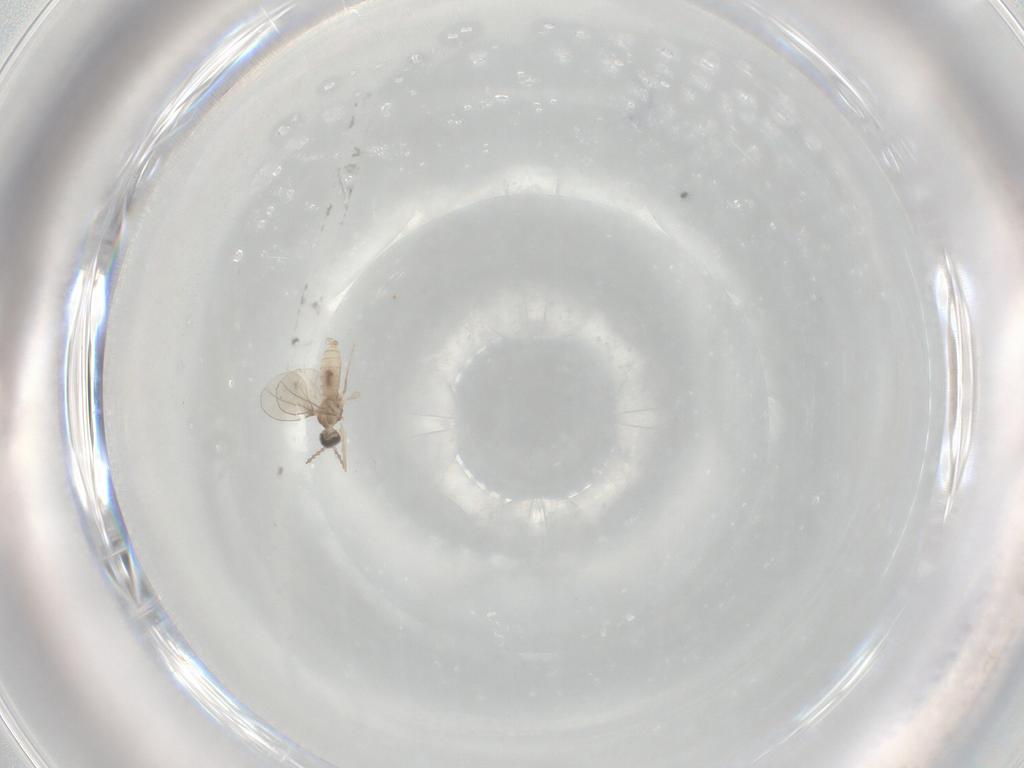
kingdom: Animalia
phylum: Arthropoda
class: Insecta
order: Diptera
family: Cecidomyiidae
